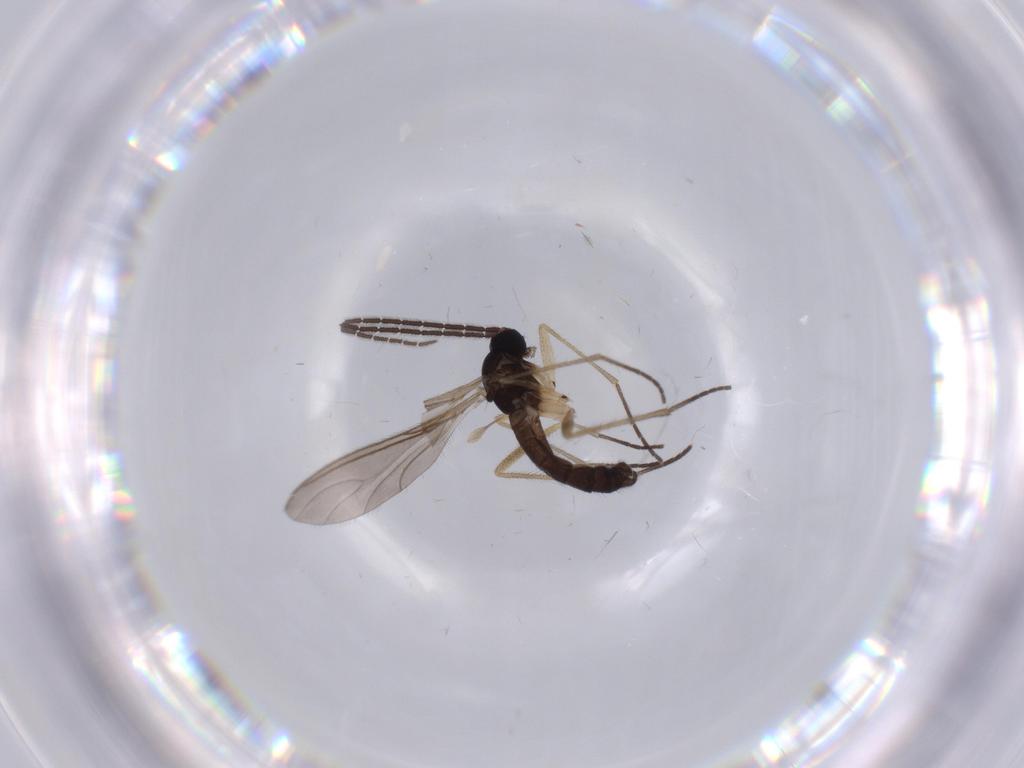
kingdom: Animalia
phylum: Arthropoda
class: Insecta
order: Diptera
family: Sciaridae
